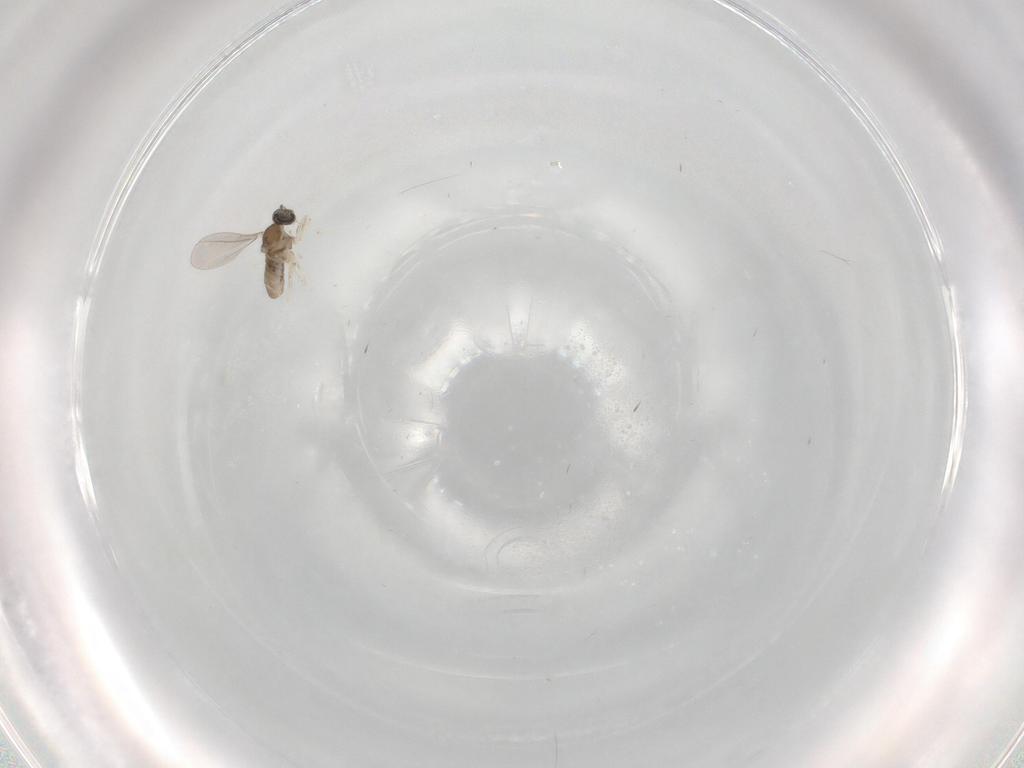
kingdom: Animalia
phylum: Arthropoda
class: Insecta
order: Diptera
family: Cecidomyiidae
